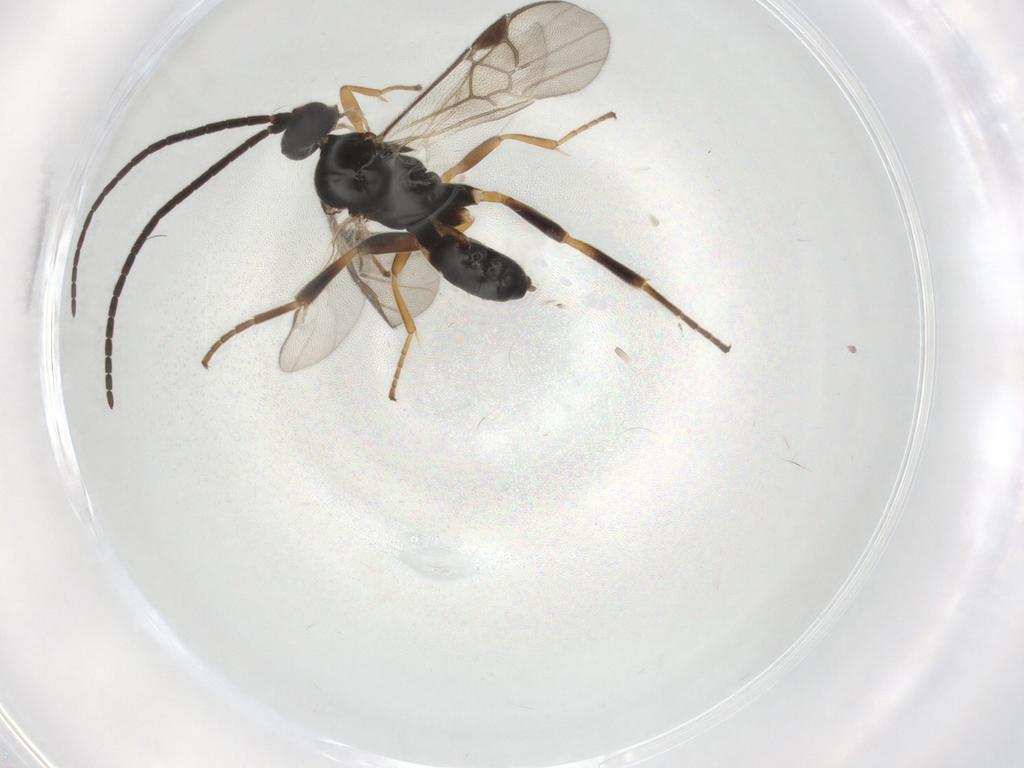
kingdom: Animalia
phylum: Arthropoda
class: Insecta
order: Hymenoptera
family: Braconidae
